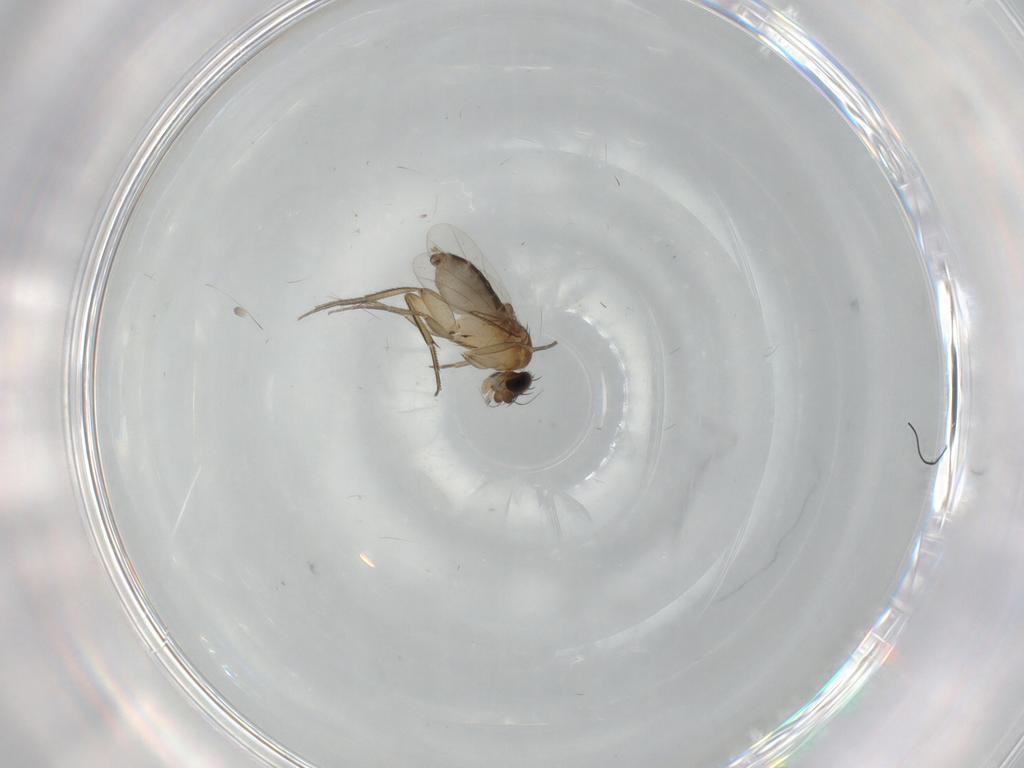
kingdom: Animalia
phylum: Arthropoda
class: Insecta
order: Diptera
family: Phoridae
